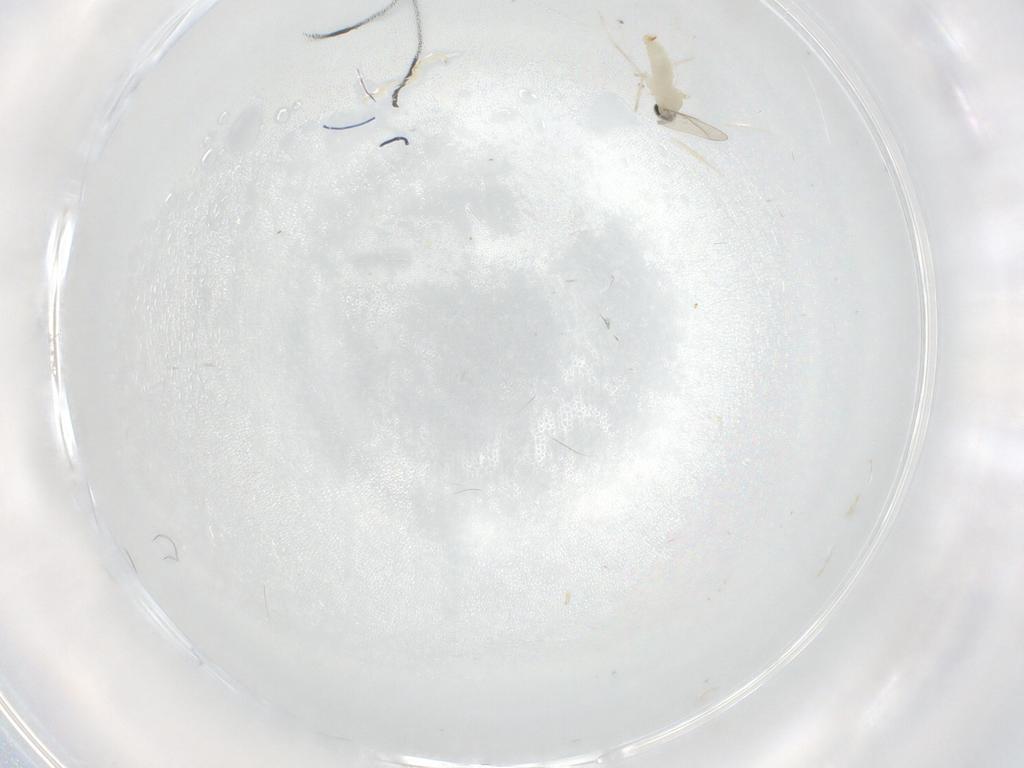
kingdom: Animalia
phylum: Arthropoda
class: Insecta
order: Diptera
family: Cecidomyiidae
